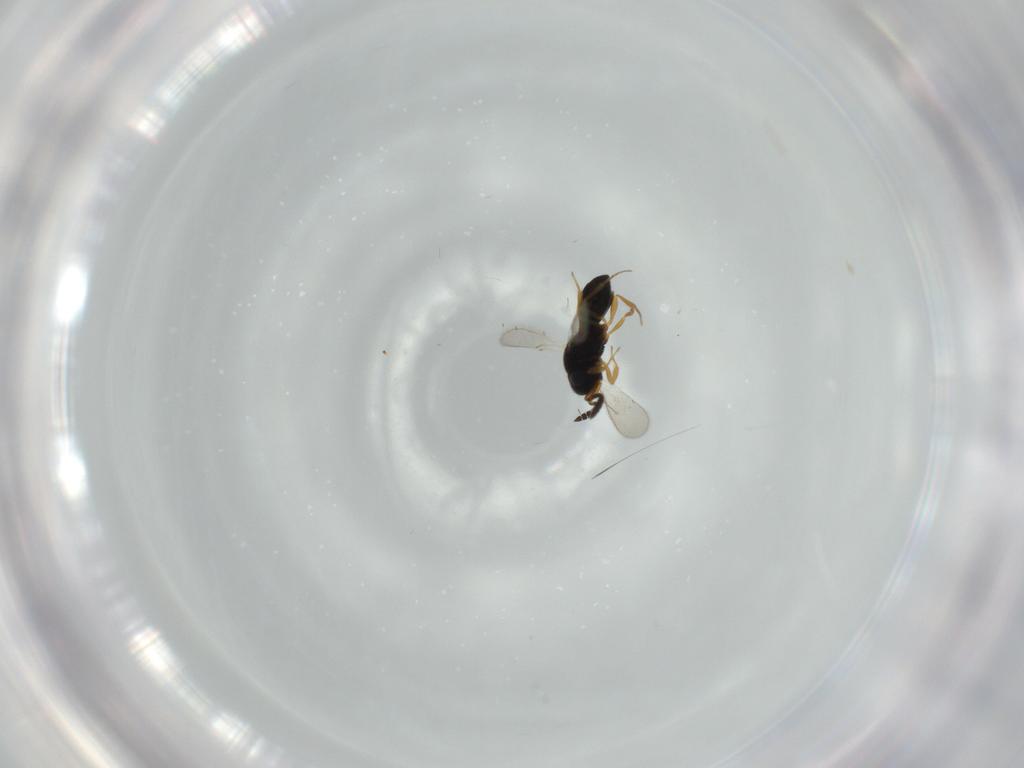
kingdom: Animalia
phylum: Arthropoda
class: Insecta
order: Hymenoptera
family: Scelionidae
